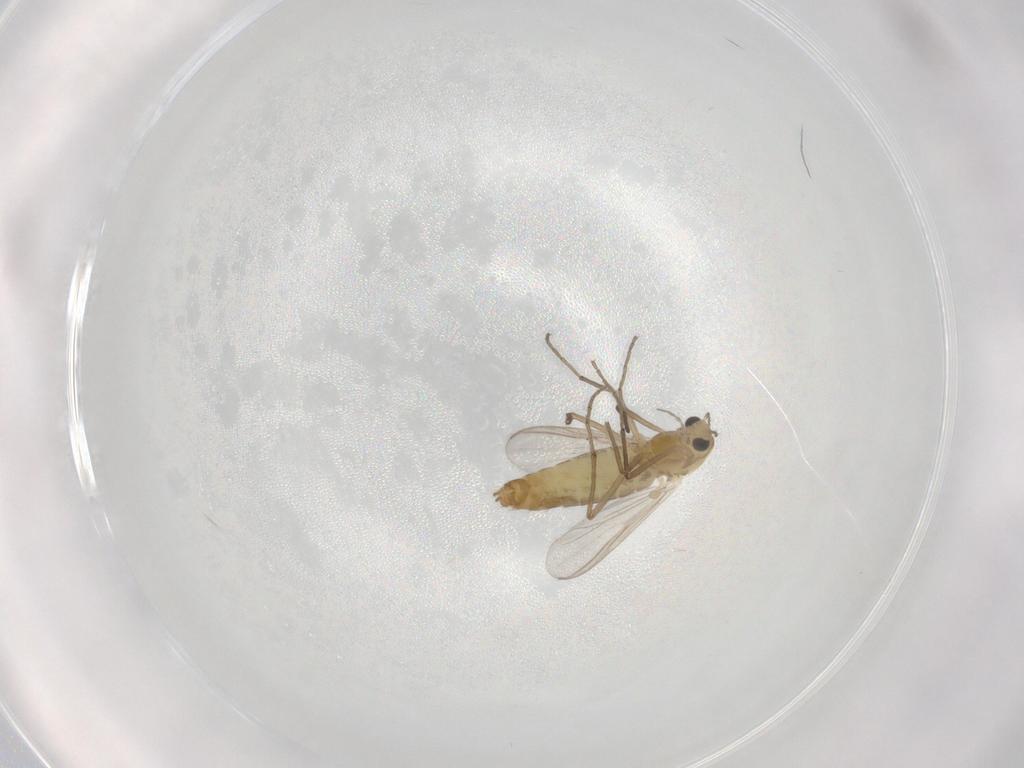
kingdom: Animalia
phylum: Arthropoda
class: Insecta
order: Diptera
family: Chironomidae
